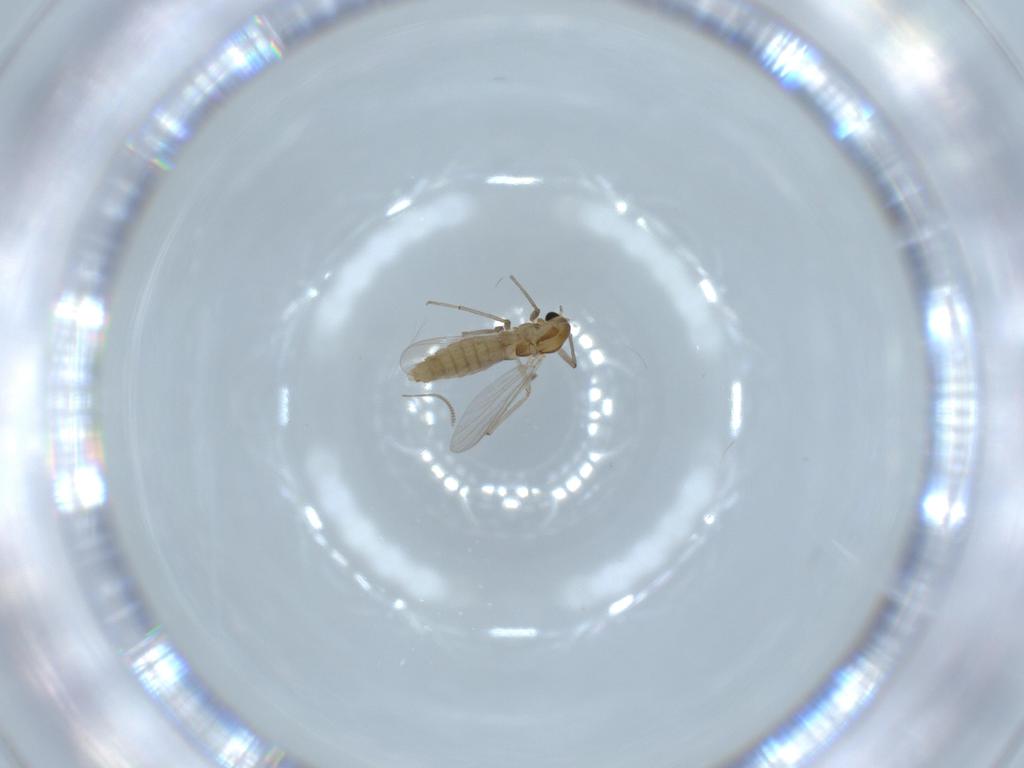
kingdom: Animalia
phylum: Arthropoda
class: Insecta
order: Diptera
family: Chironomidae
